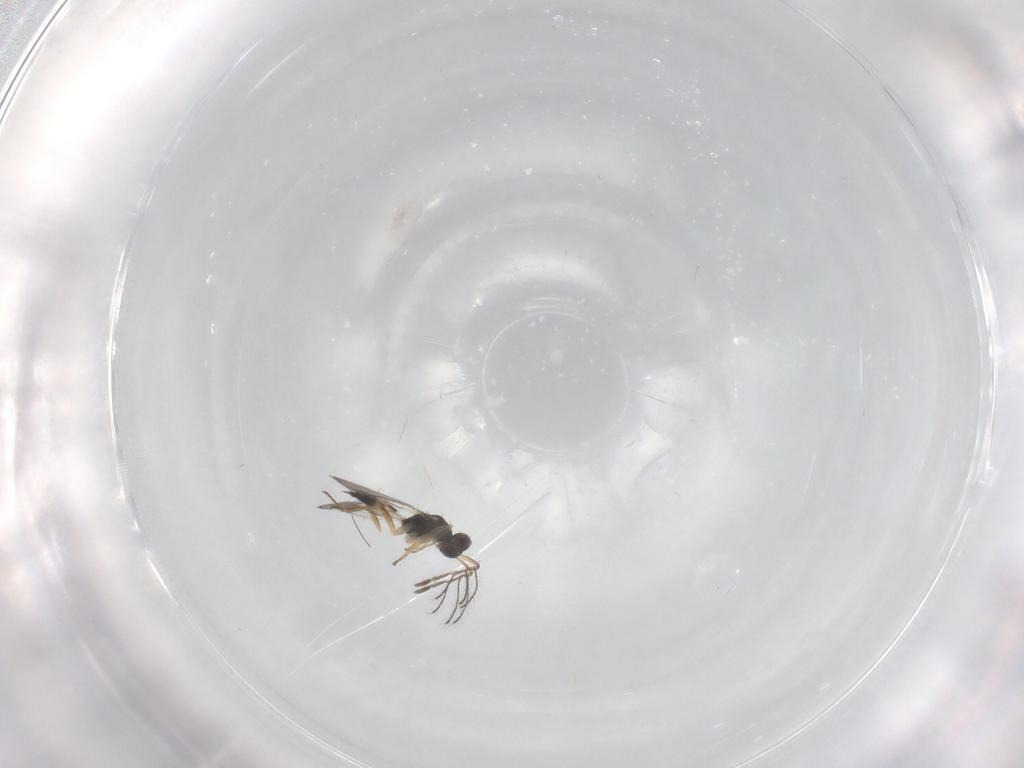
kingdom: Animalia
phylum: Arthropoda
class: Insecta
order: Hymenoptera
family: Eulophidae
